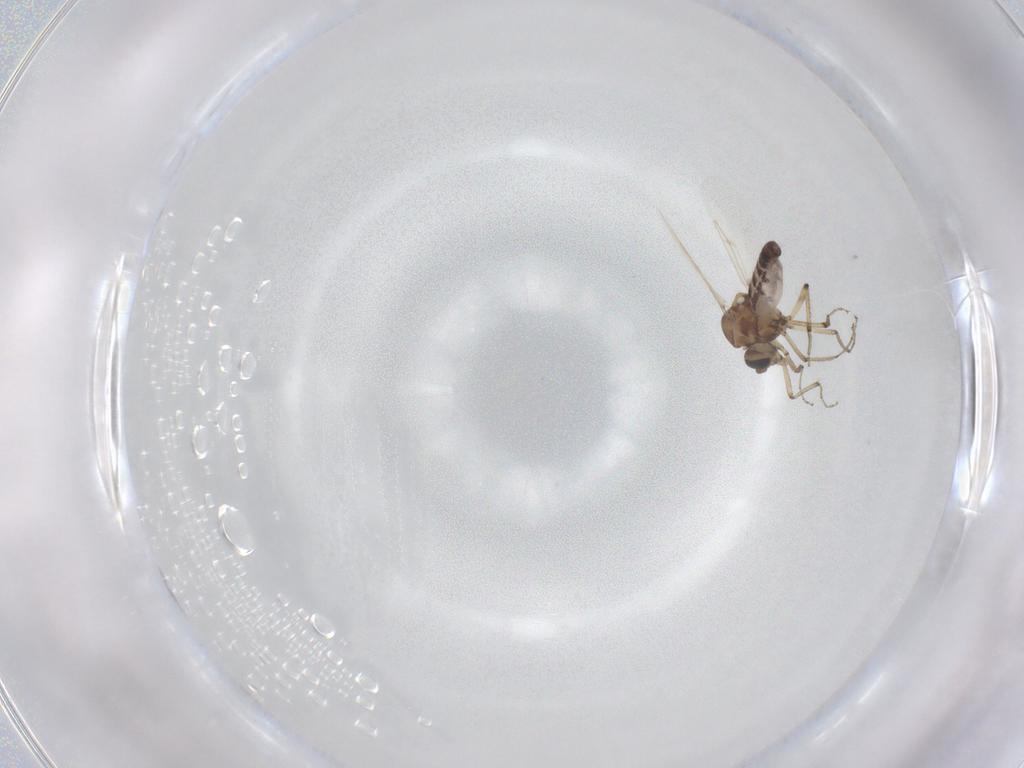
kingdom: Animalia
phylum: Arthropoda
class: Insecta
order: Diptera
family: Ceratopogonidae
